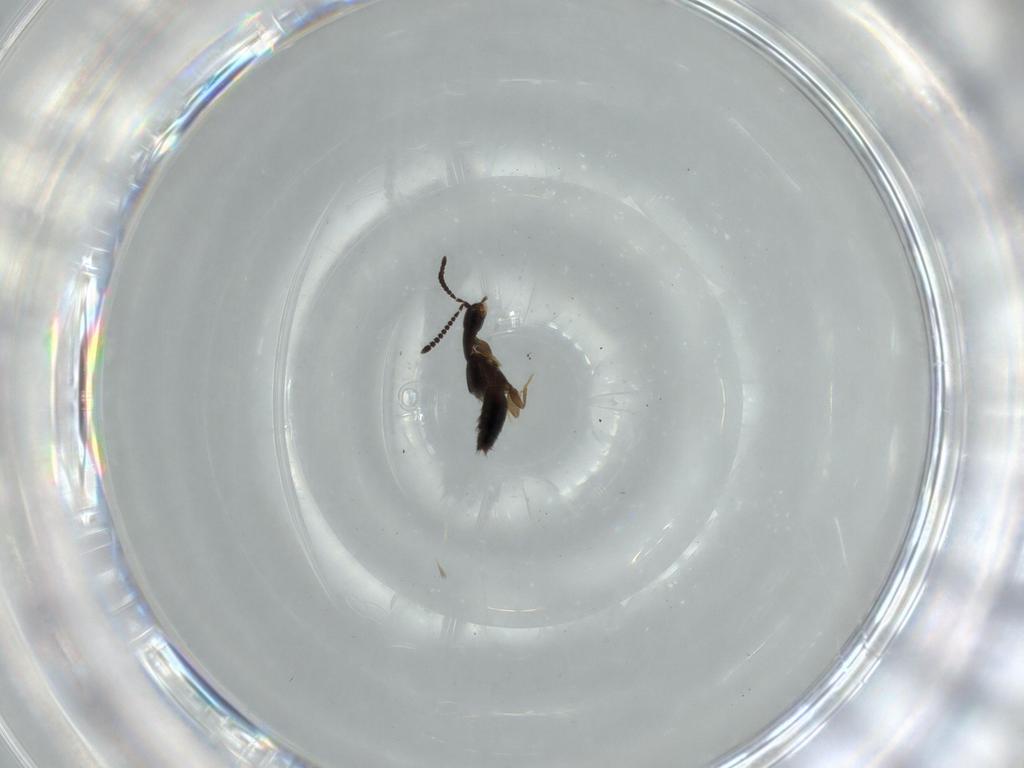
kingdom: Animalia
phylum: Arthropoda
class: Insecta
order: Coleoptera
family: Staphylinidae
